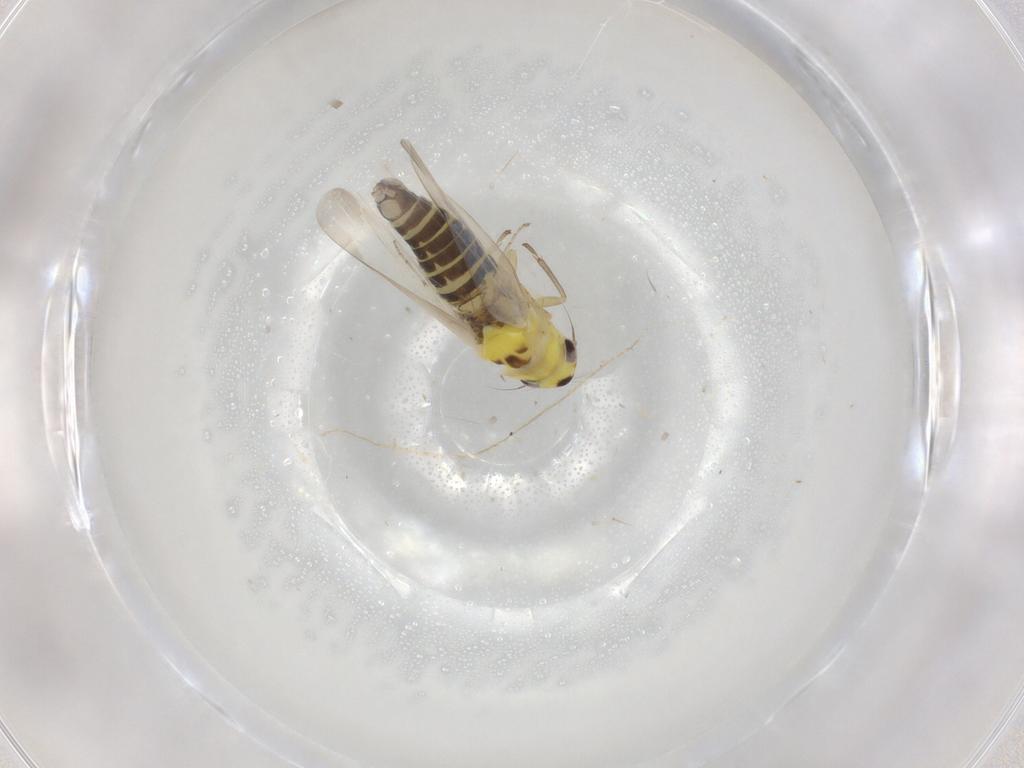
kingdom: Animalia
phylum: Arthropoda
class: Insecta
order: Hemiptera
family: Cicadellidae
